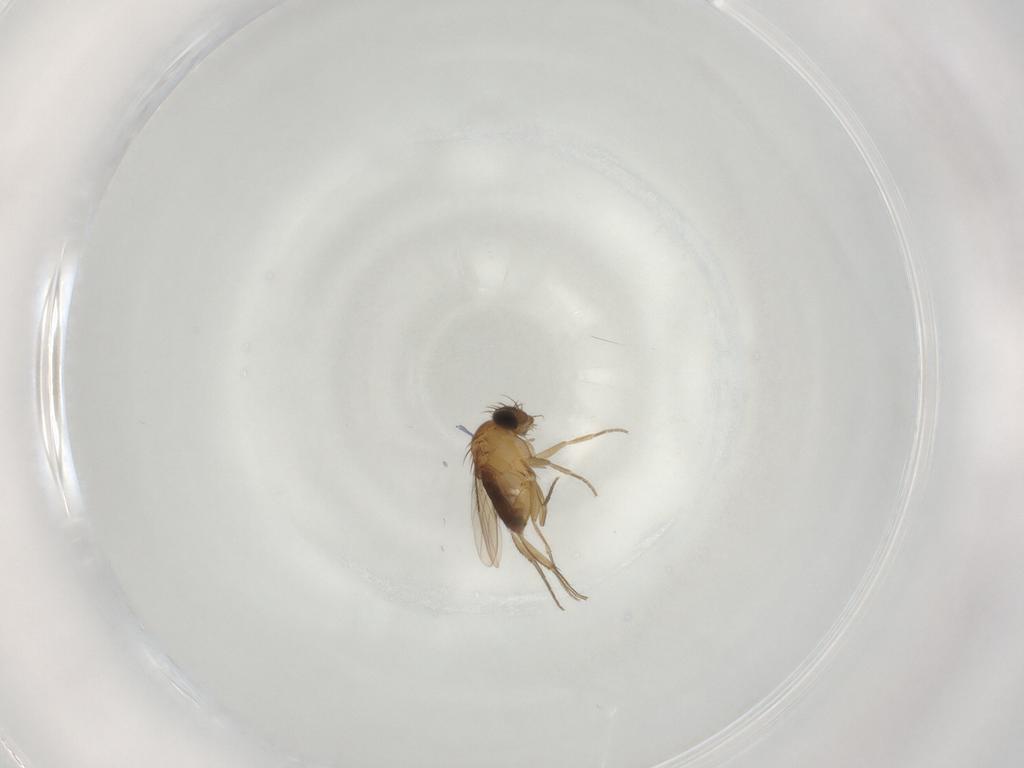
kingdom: Animalia
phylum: Arthropoda
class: Insecta
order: Diptera
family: Phoridae
